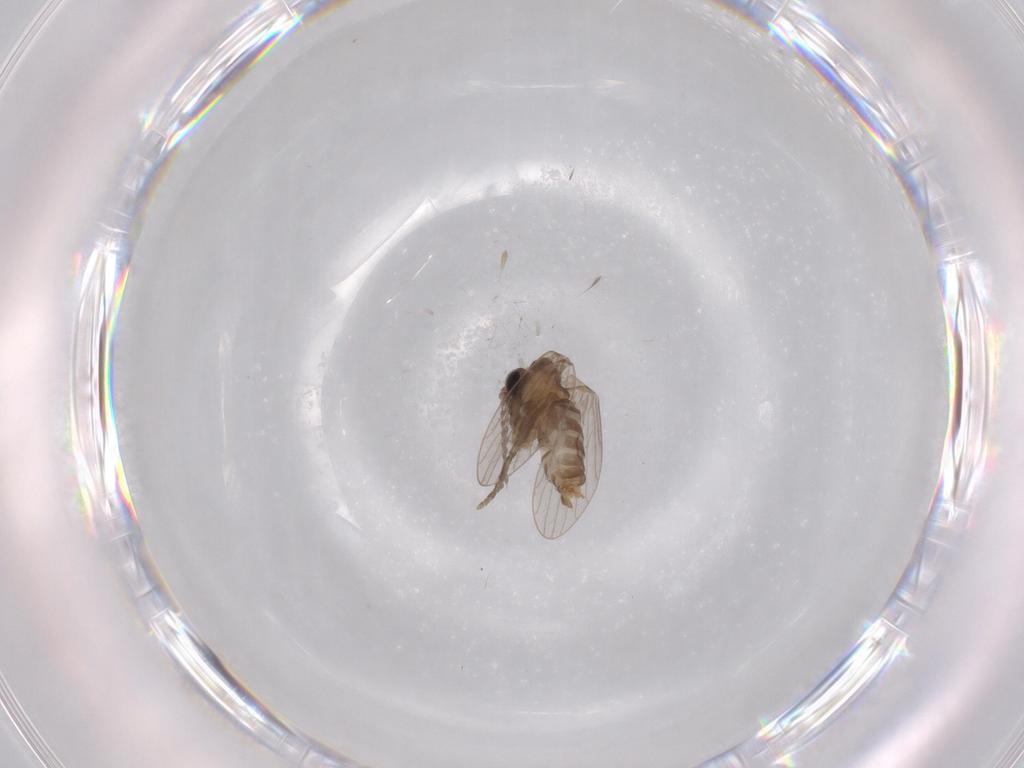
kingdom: Animalia
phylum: Arthropoda
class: Insecta
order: Diptera
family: Psychodidae
